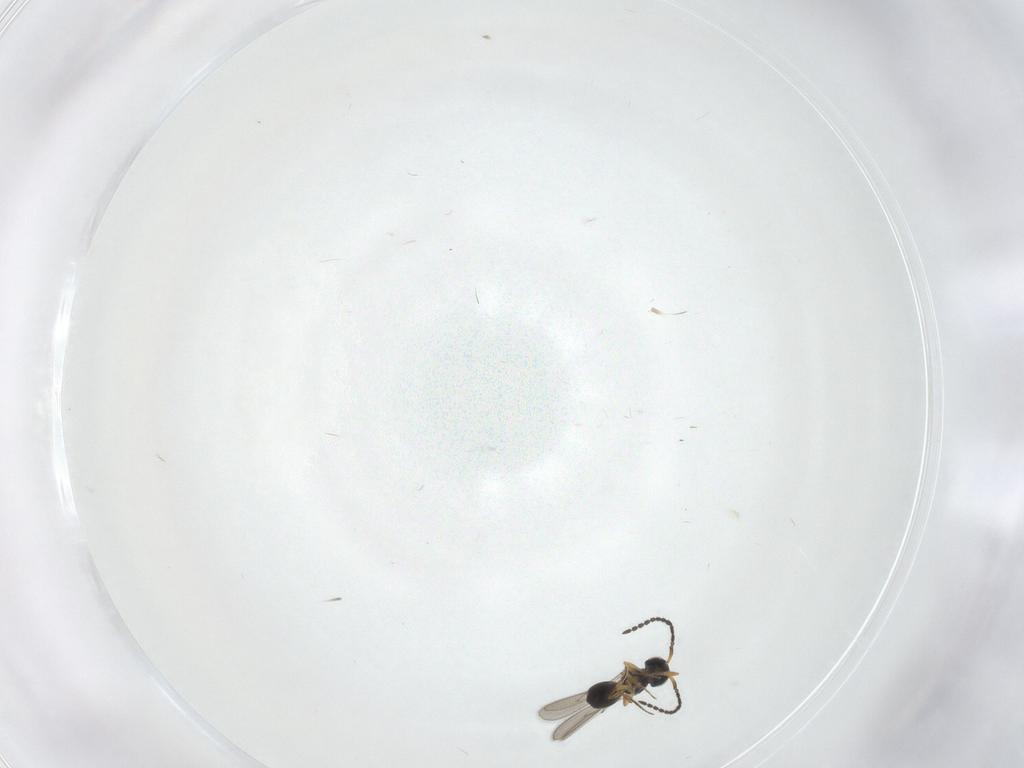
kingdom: Animalia
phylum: Arthropoda
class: Insecta
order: Hymenoptera
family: Scelionidae
